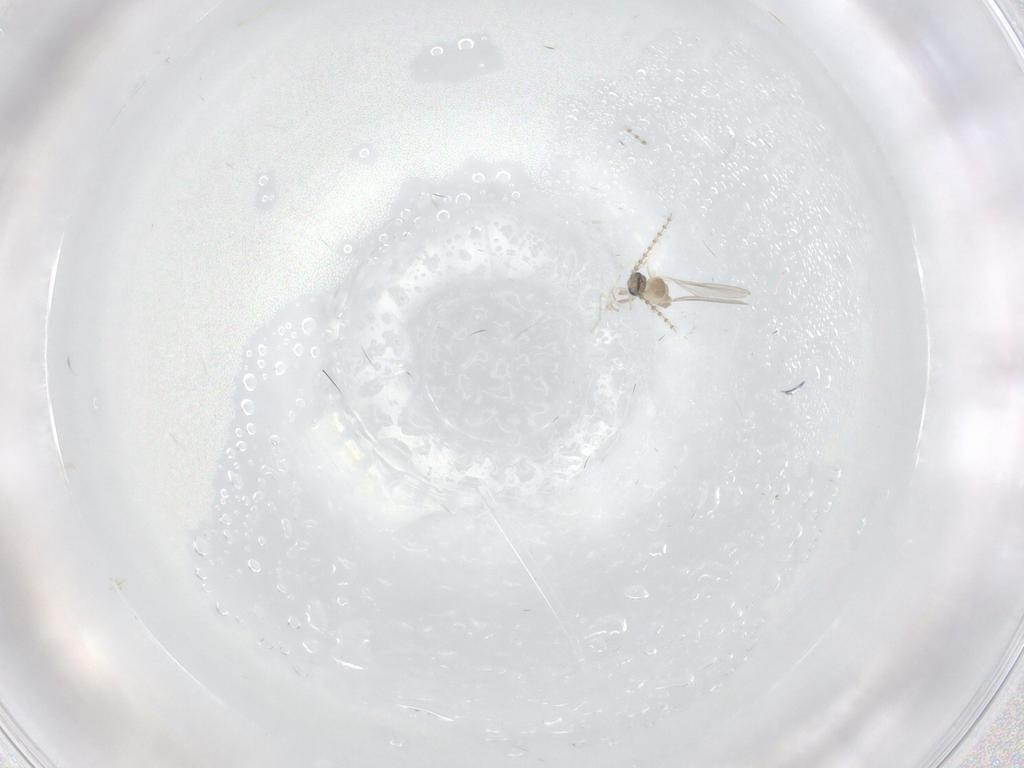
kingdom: Animalia
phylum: Arthropoda
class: Insecta
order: Diptera
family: Cecidomyiidae
